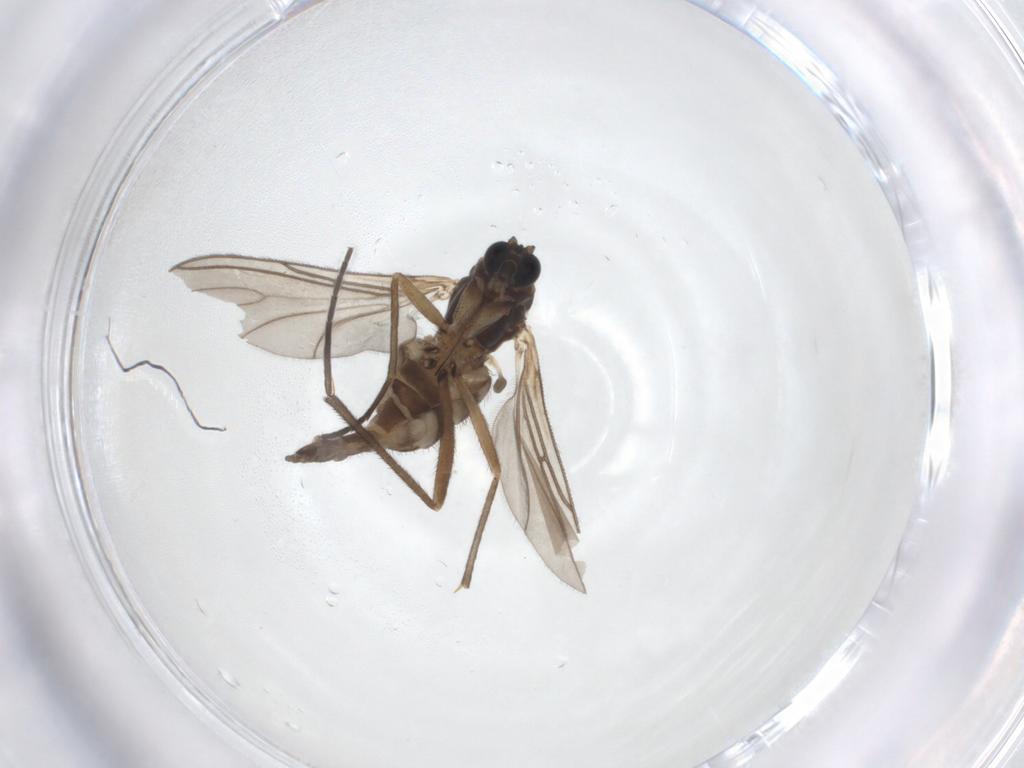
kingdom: Animalia
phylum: Arthropoda
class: Insecta
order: Diptera
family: Sciaridae
